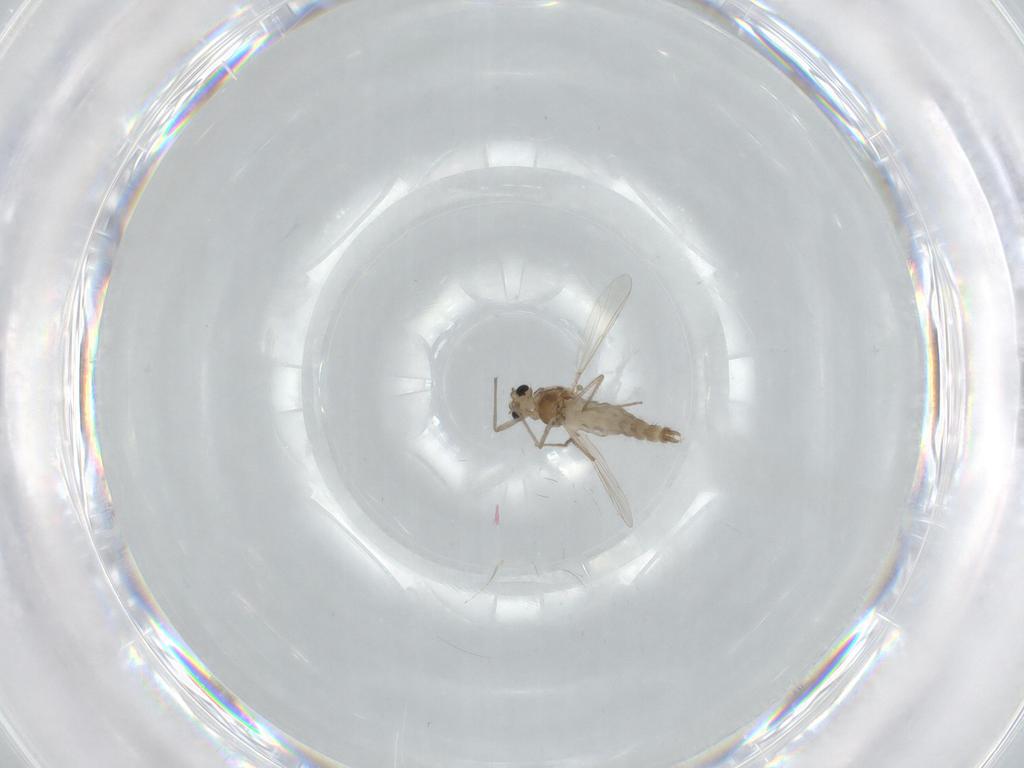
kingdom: Animalia
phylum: Arthropoda
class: Insecta
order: Diptera
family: Chironomidae
